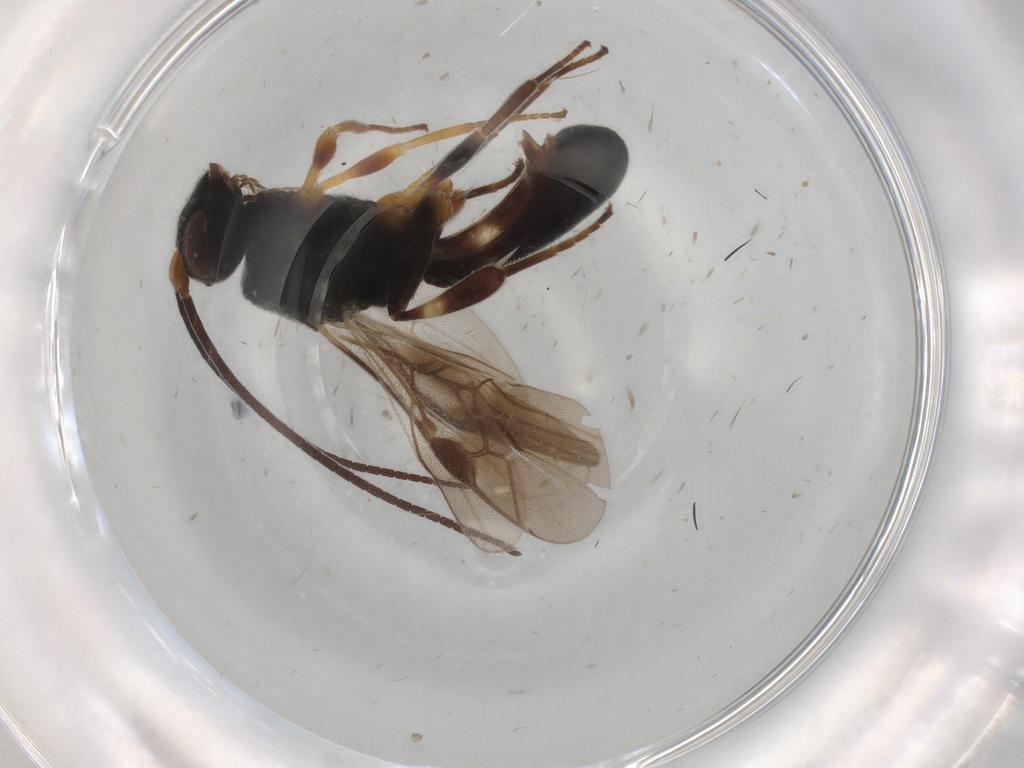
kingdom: Animalia
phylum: Arthropoda
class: Insecta
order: Hymenoptera
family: Braconidae
